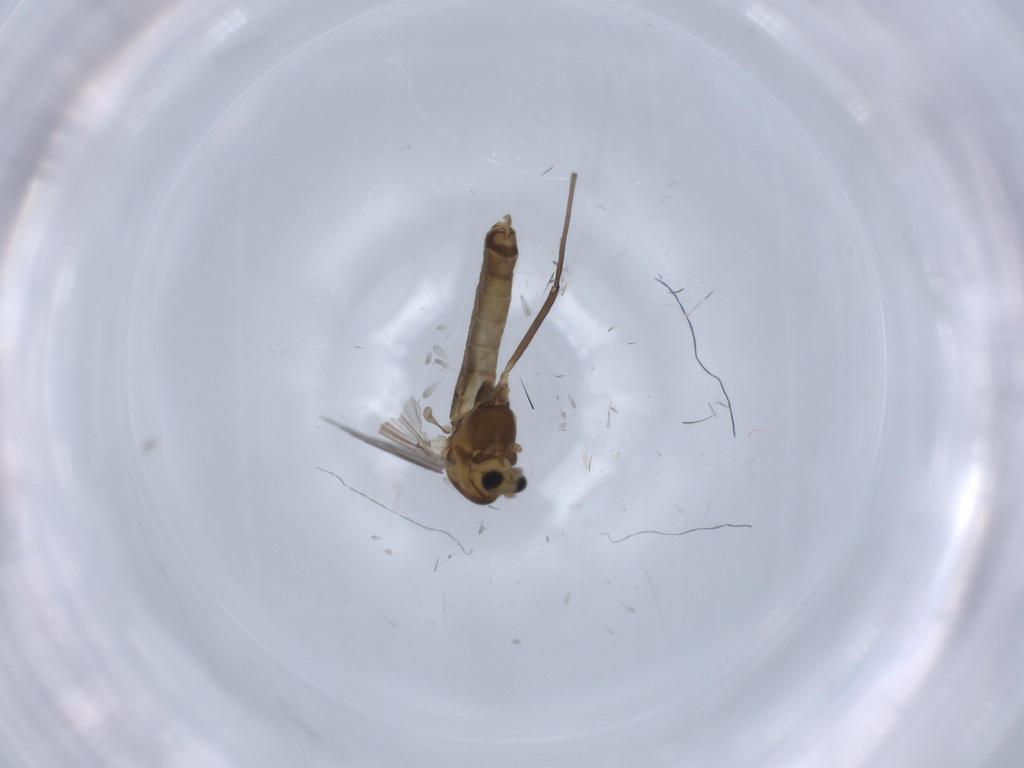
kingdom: Animalia
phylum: Arthropoda
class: Insecta
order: Diptera
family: Chironomidae
